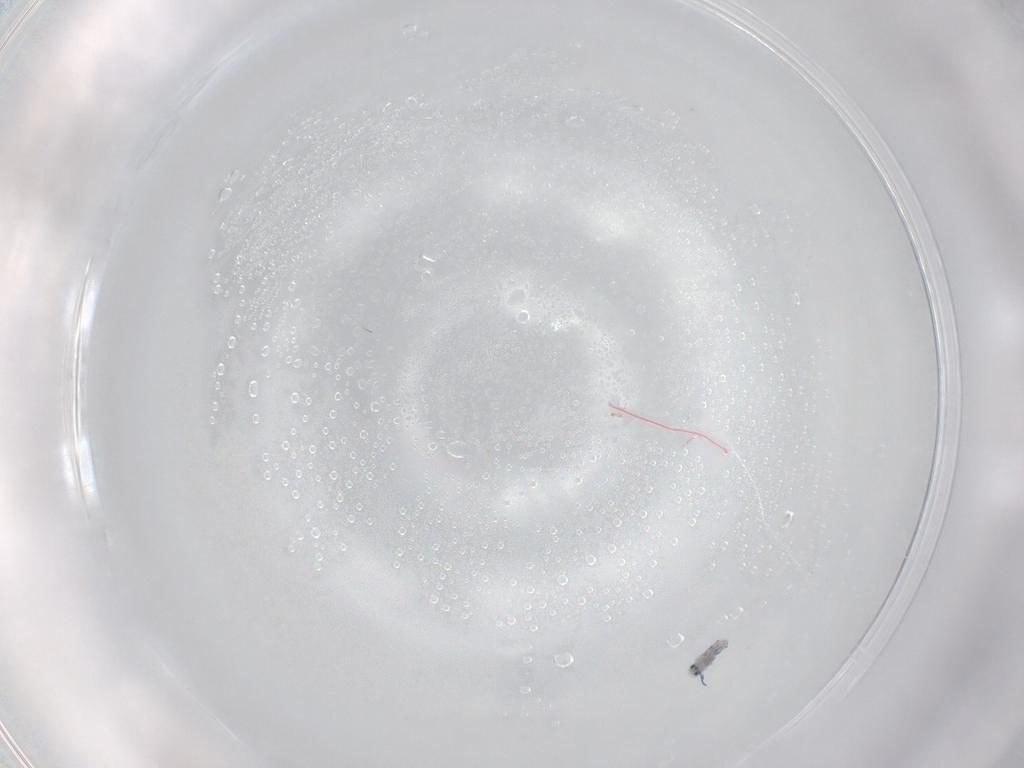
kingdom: Animalia
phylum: Arthropoda
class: Collembola
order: Entomobryomorpha
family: Entomobryidae
